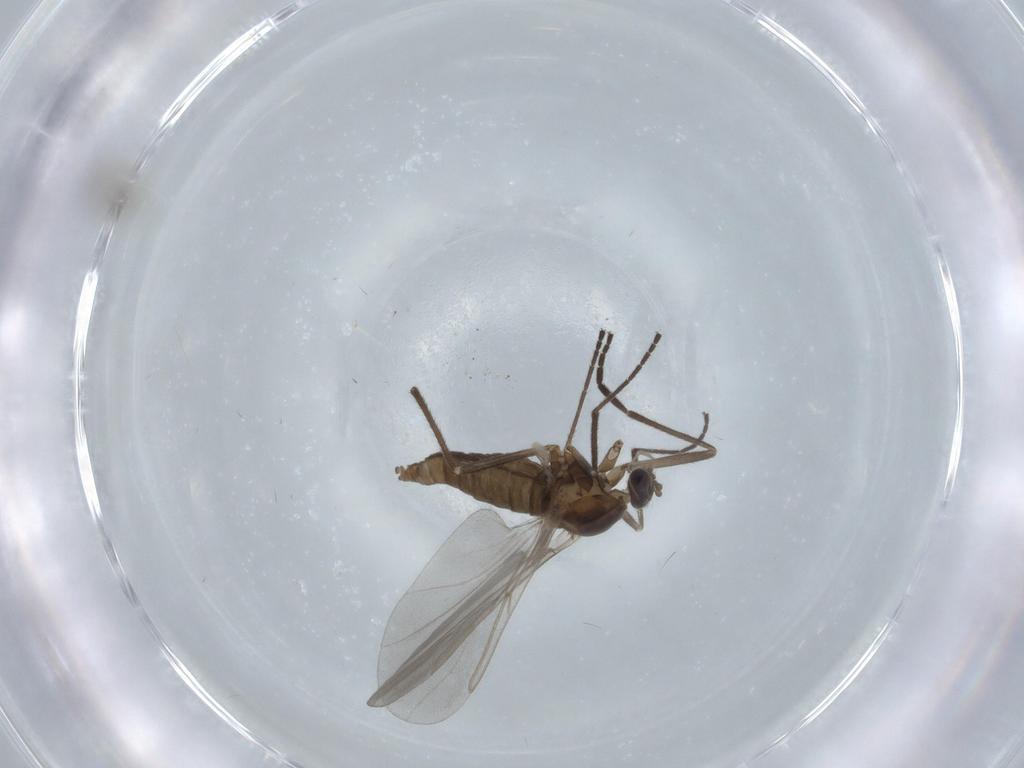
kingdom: Animalia
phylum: Arthropoda
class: Insecta
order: Diptera
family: Cecidomyiidae
